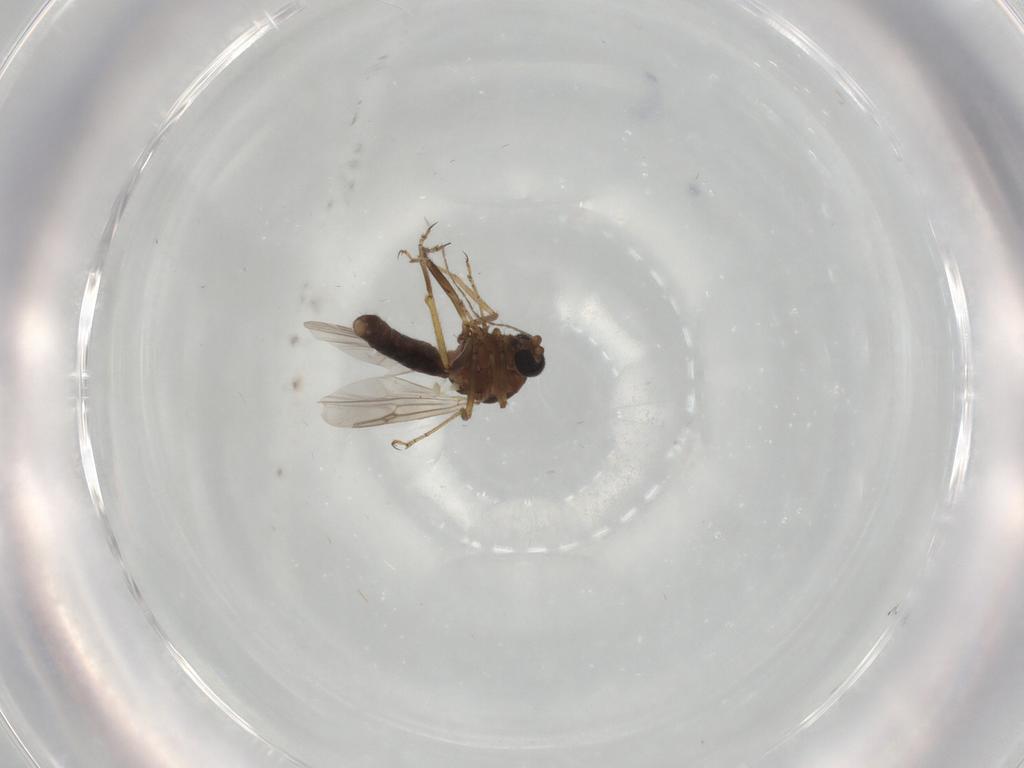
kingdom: Animalia
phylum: Arthropoda
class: Insecta
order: Diptera
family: Ceratopogonidae
